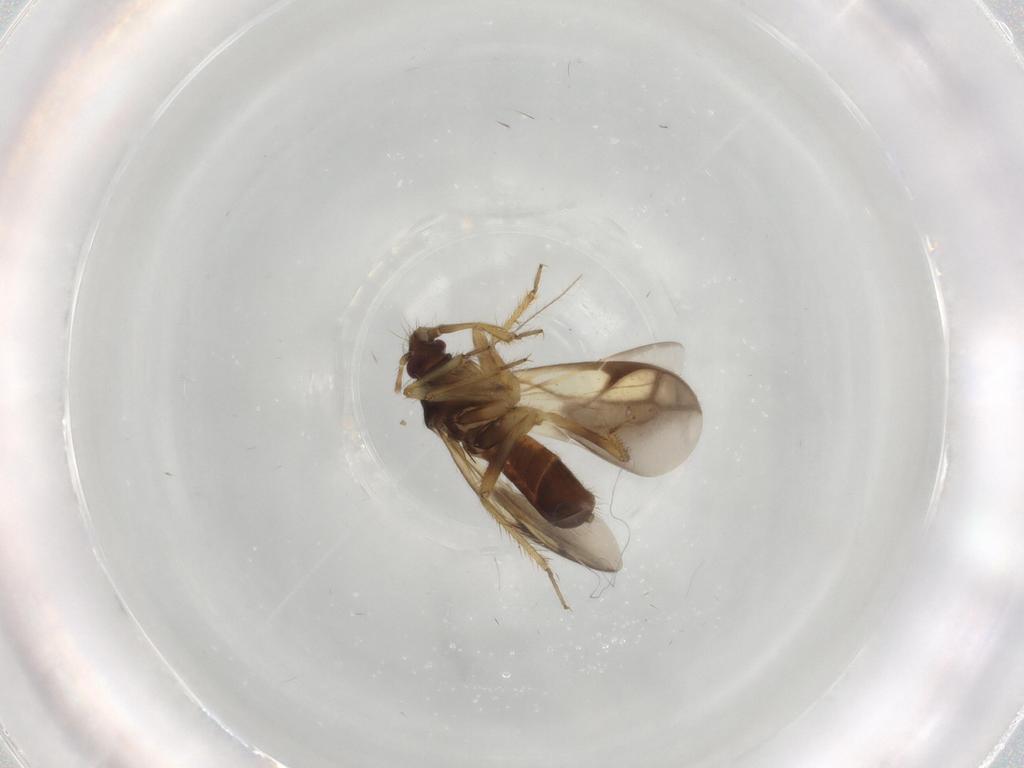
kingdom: Animalia
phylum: Arthropoda
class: Insecta
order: Hemiptera
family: Ceratocombidae
